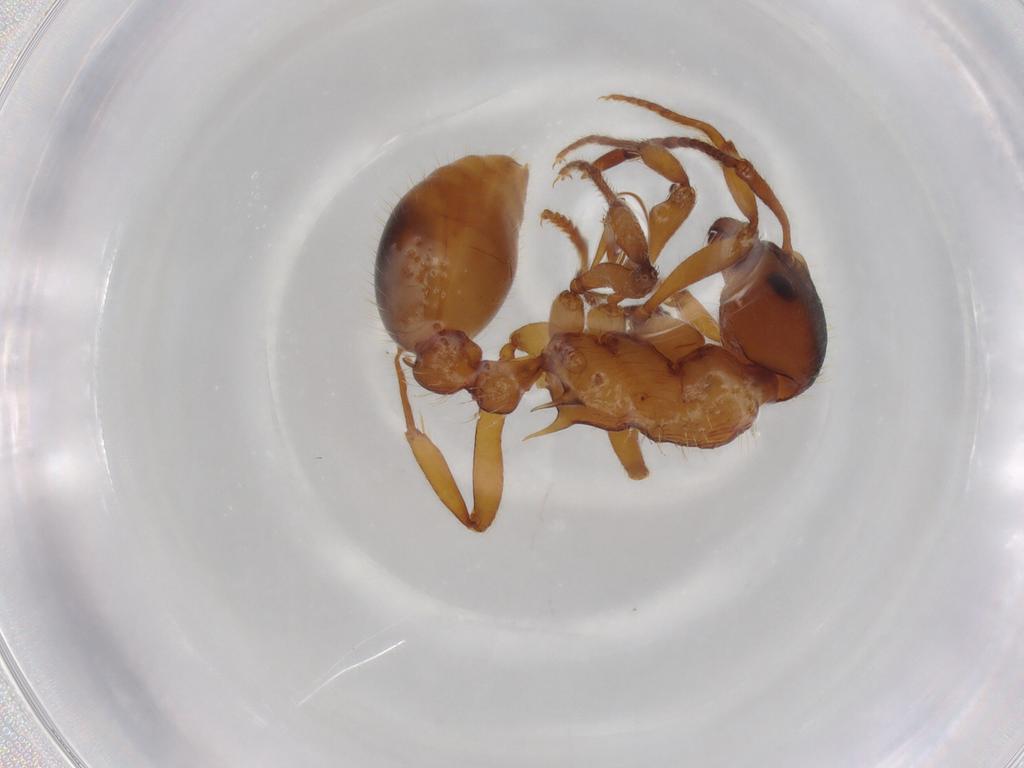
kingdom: Animalia
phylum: Arthropoda
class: Insecta
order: Hymenoptera
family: Formicidae
